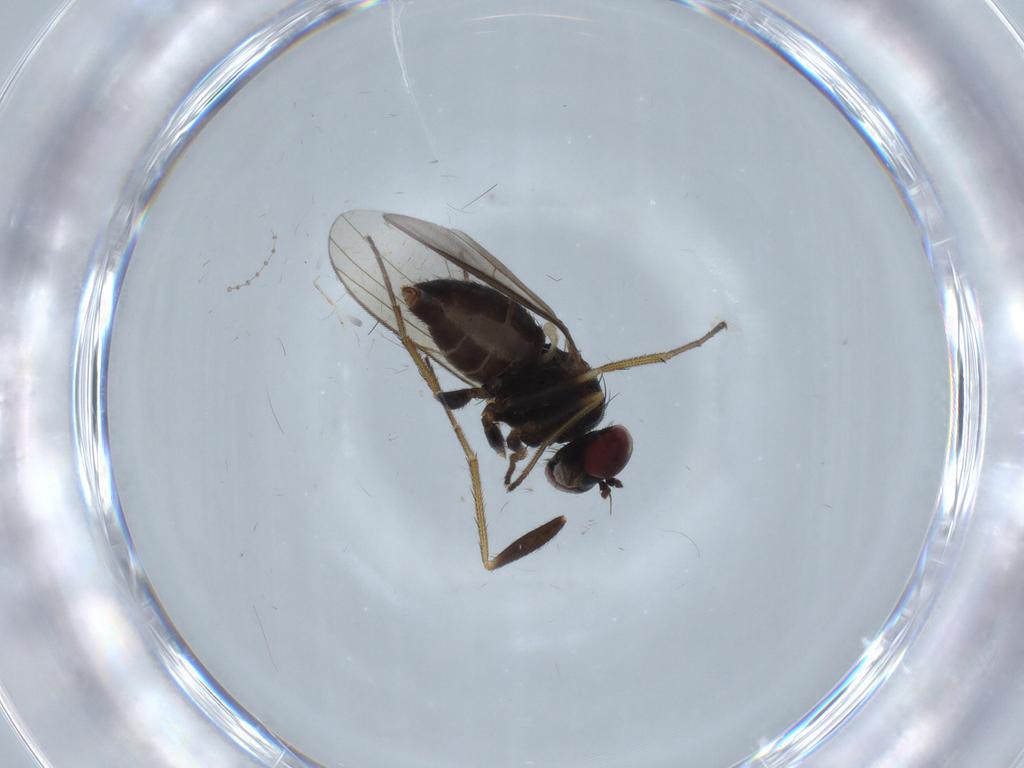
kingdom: Animalia
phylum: Arthropoda
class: Insecta
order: Diptera
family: Dolichopodidae
